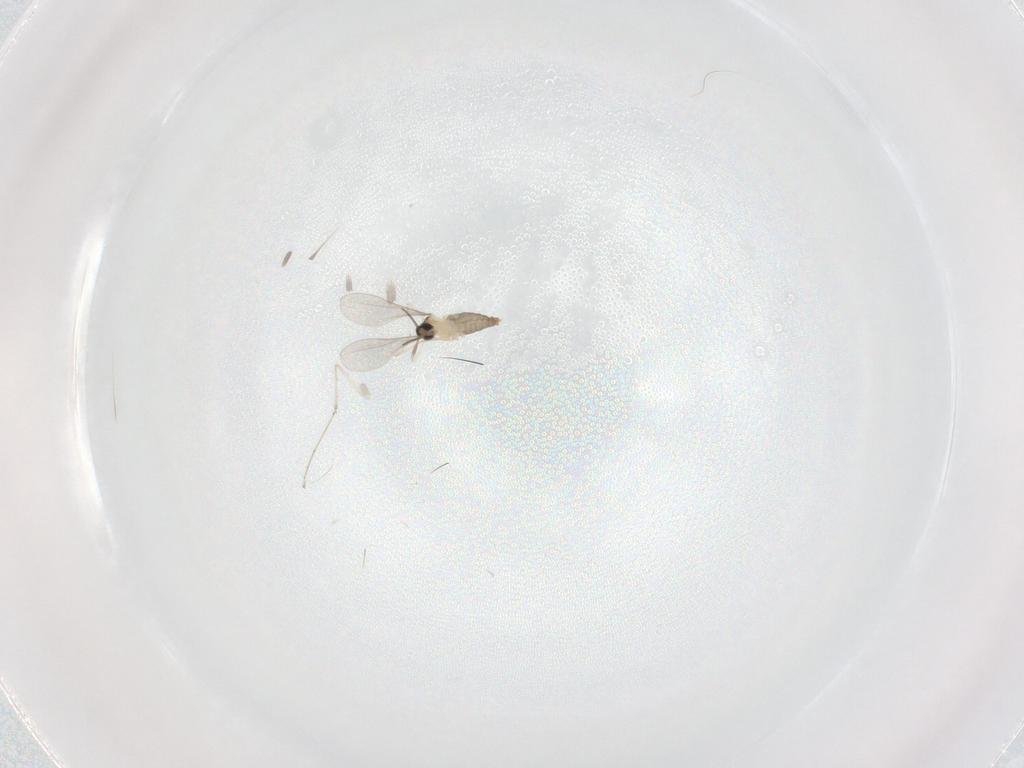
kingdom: Animalia
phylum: Arthropoda
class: Insecta
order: Diptera
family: Cecidomyiidae
